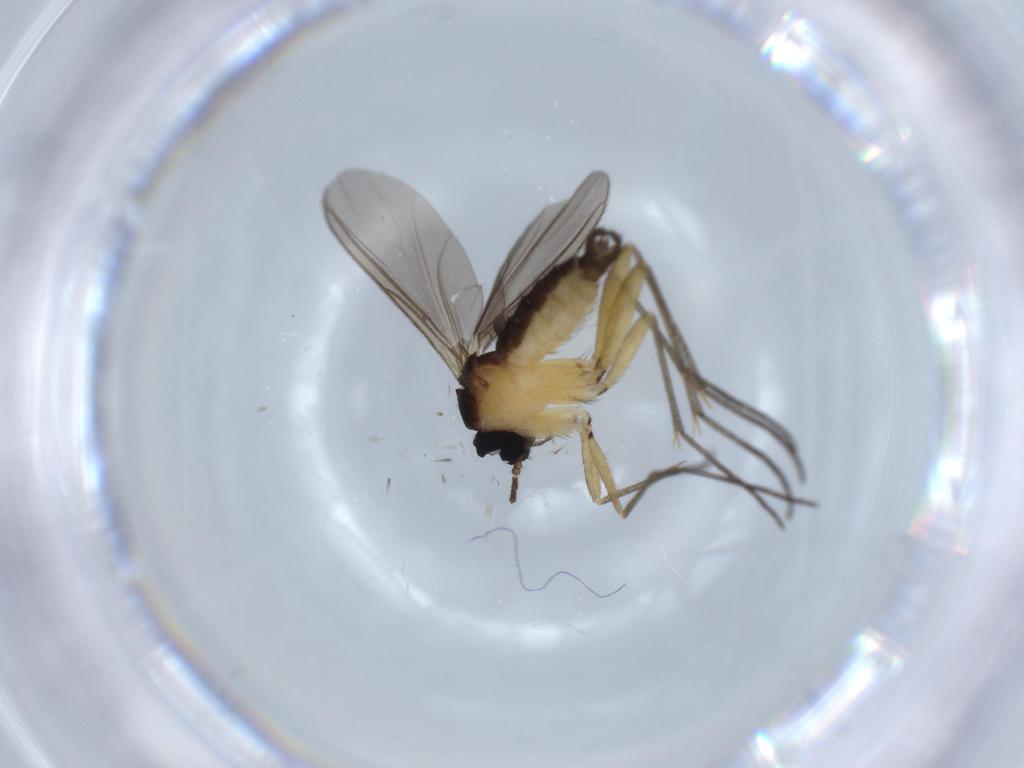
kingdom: Animalia
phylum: Arthropoda
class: Insecta
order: Diptera
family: Sciaridae
